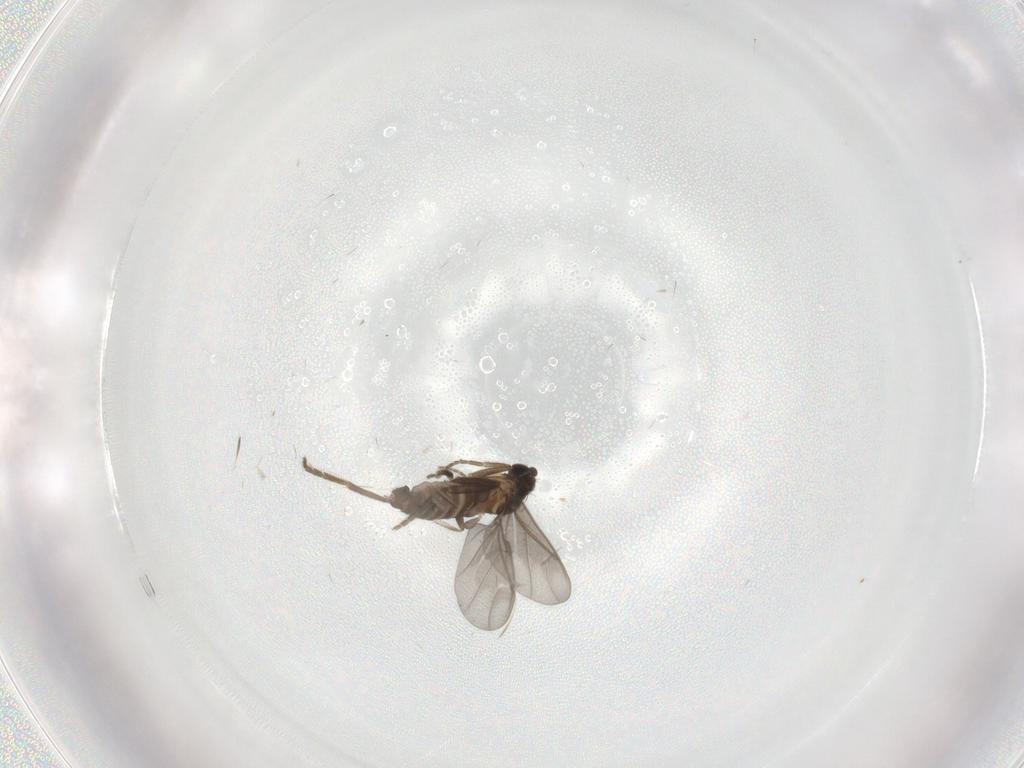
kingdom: Animalia
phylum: Arthropoda
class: Insecta
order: Diptera
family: Phoridae
